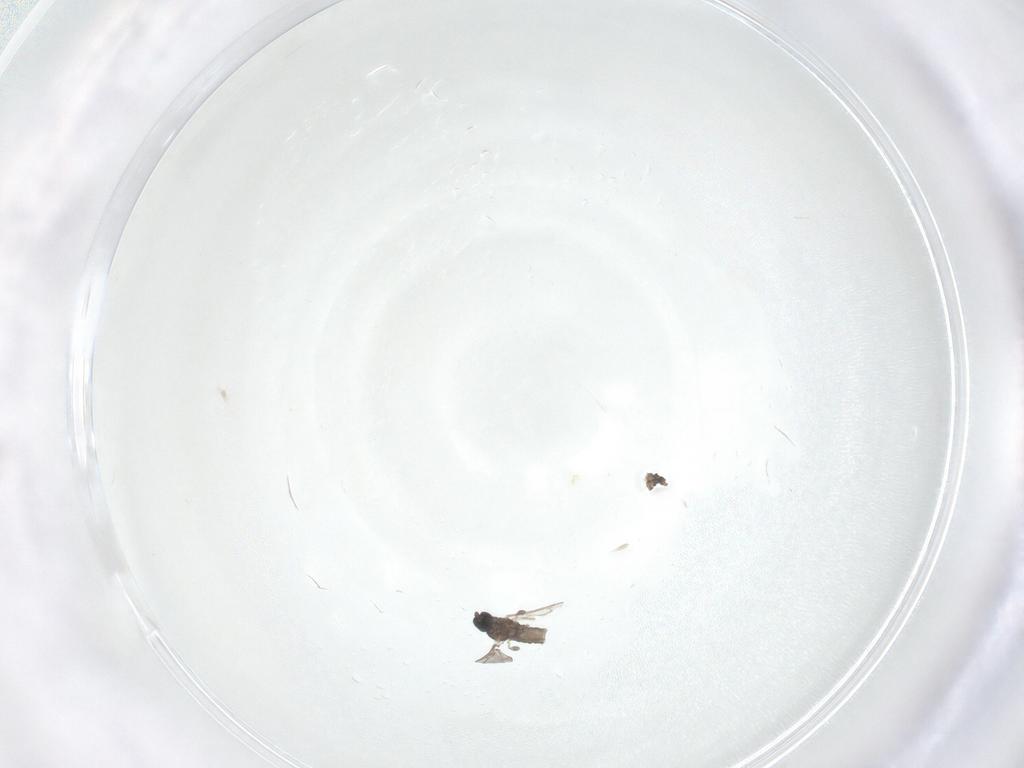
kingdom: Animalia
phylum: Arthropoda
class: Insecta
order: Diptera
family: Cecidomyiidae
